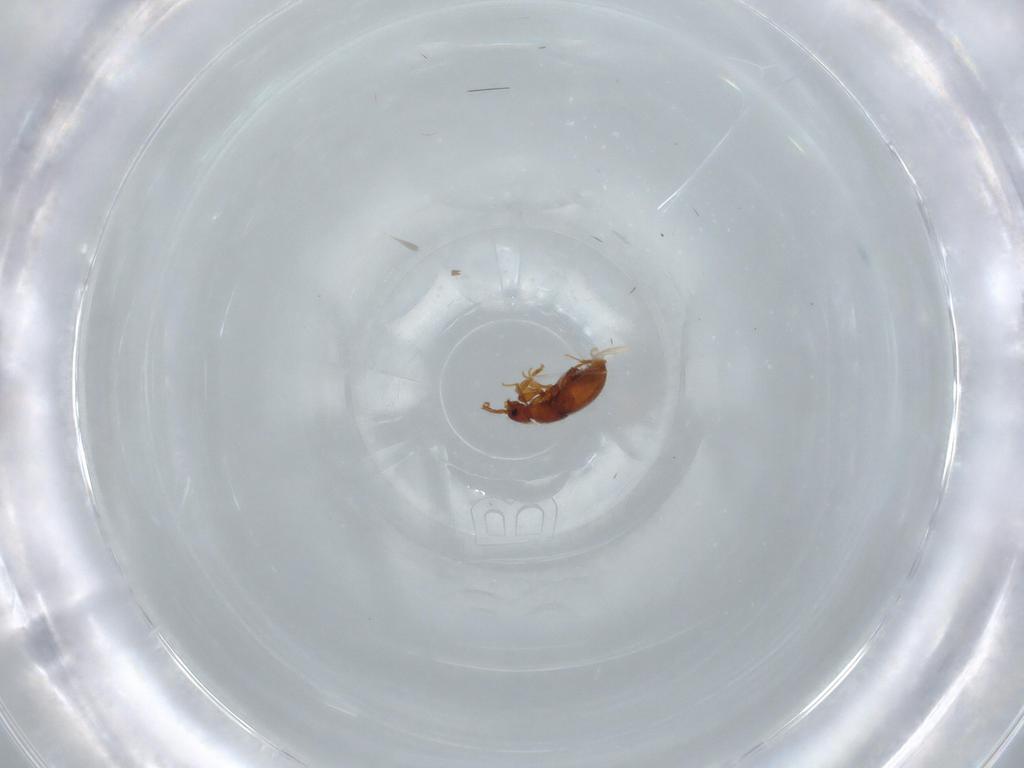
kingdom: Animalia
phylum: Arthropoda
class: Insecta
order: Coleoptera
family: Staphylinidae
